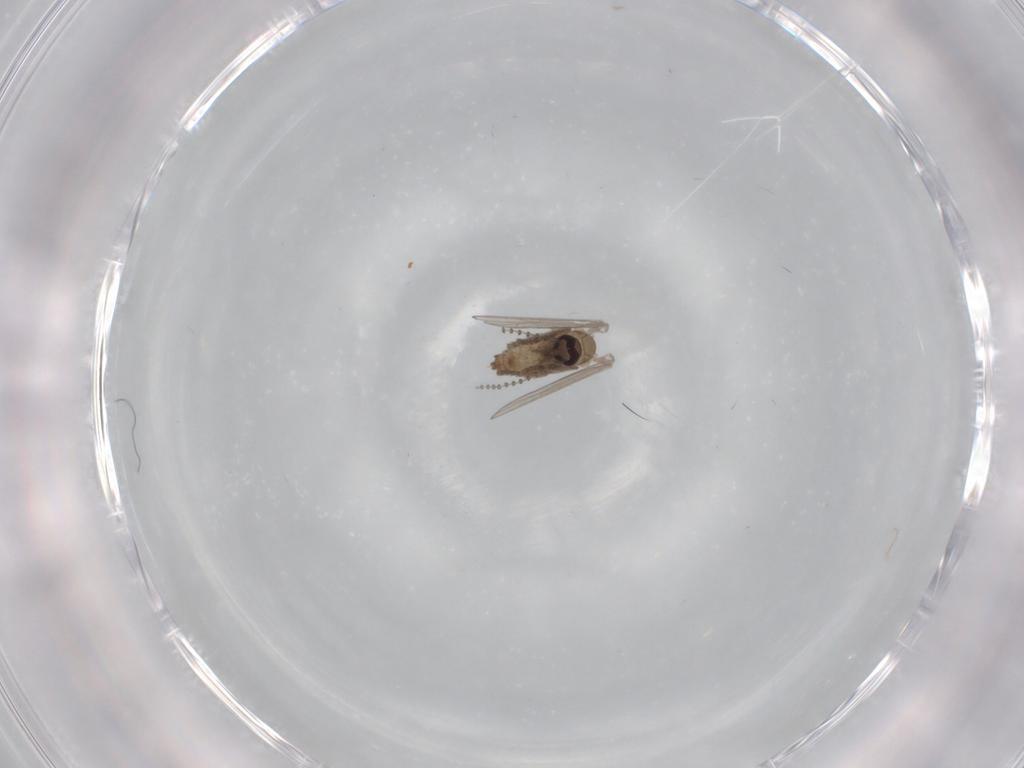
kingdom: Animalia
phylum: Arthropoda
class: Insecta
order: Diptera
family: Psychodidae
